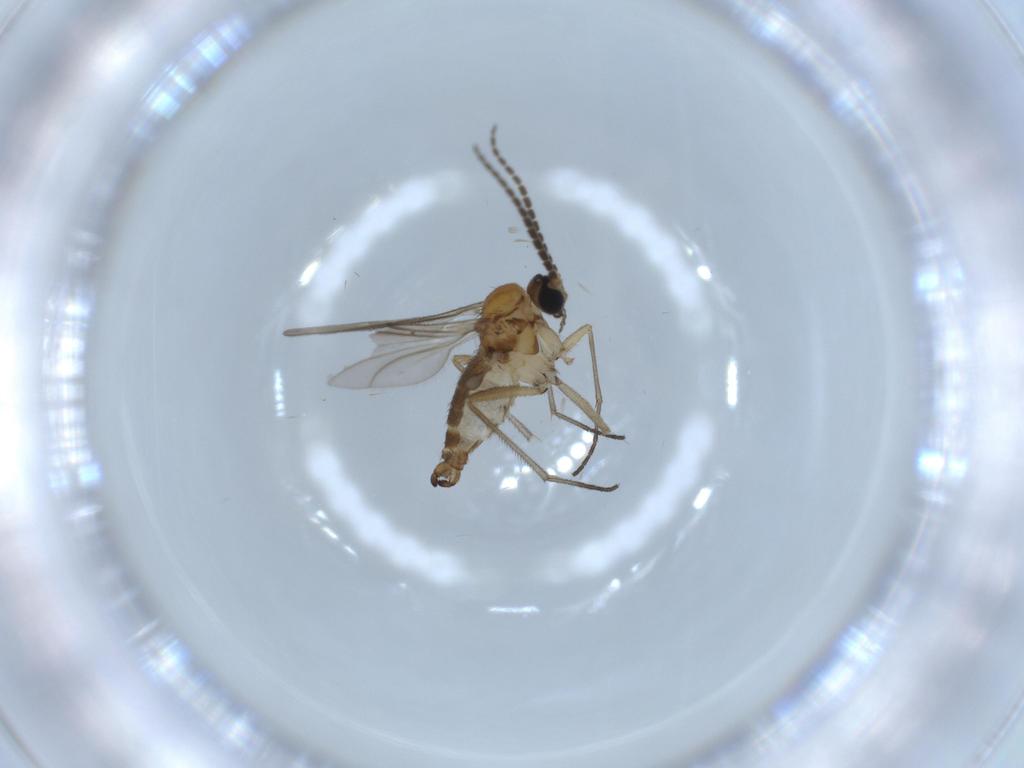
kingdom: Animalia
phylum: Arthropoda
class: Insecta
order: Diptera
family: Sciaridae
